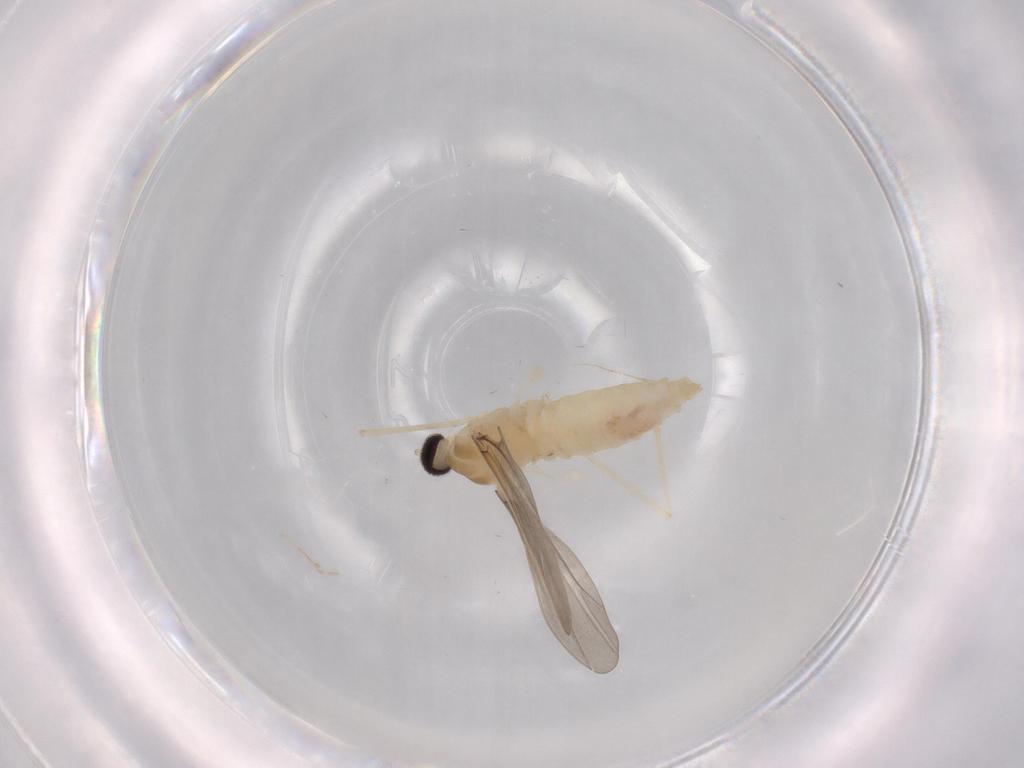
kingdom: Animalia
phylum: Arthropoda
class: Insecta
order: Diptera
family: Cecidomyiidae
